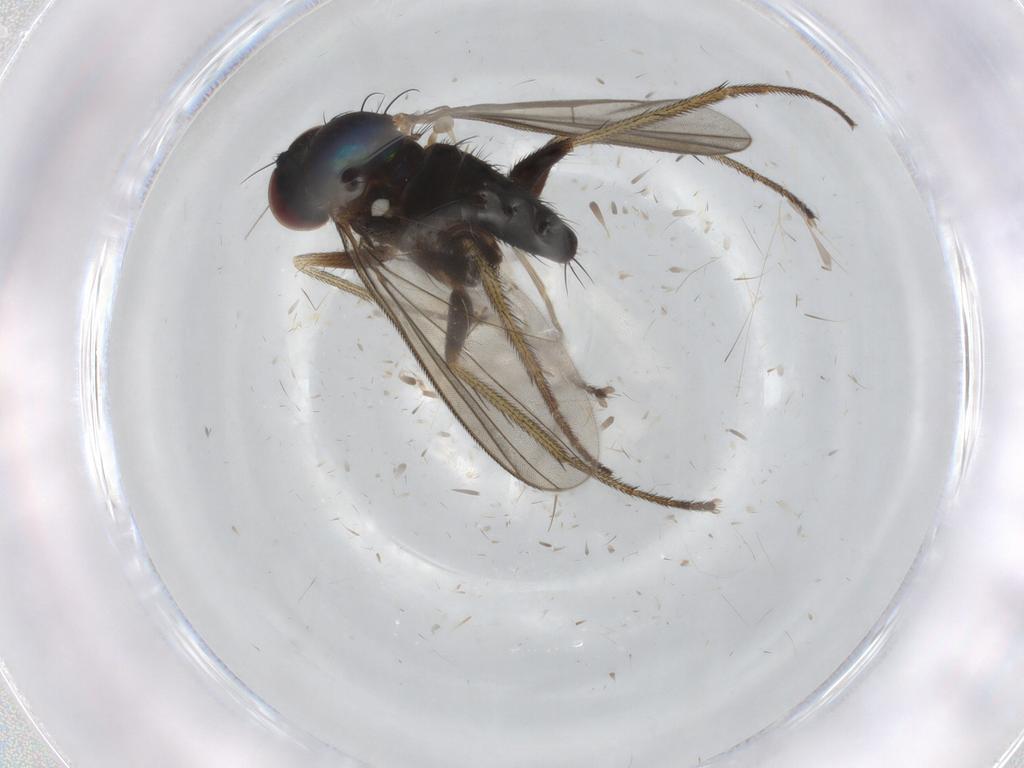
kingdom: Animalia
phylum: Arthropoda
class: Insecta
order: Diptera
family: Dolichopodidae
